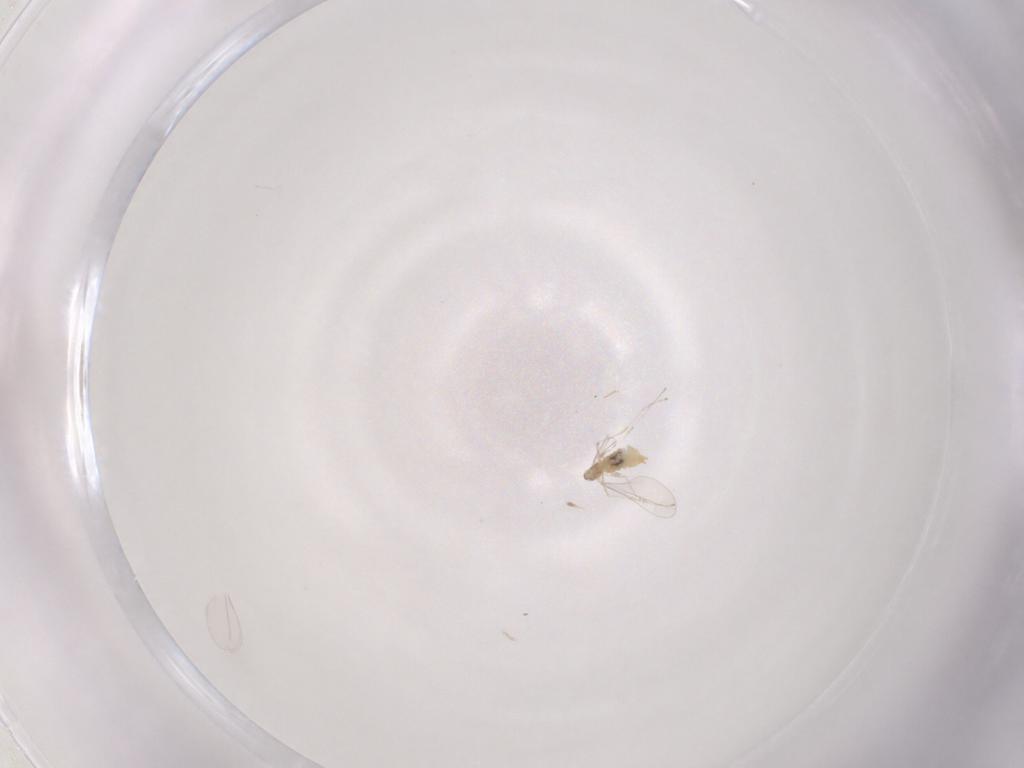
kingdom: Animalia
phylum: Arthropoda
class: Insecta
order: Diptera
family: Cecidomyiidae
